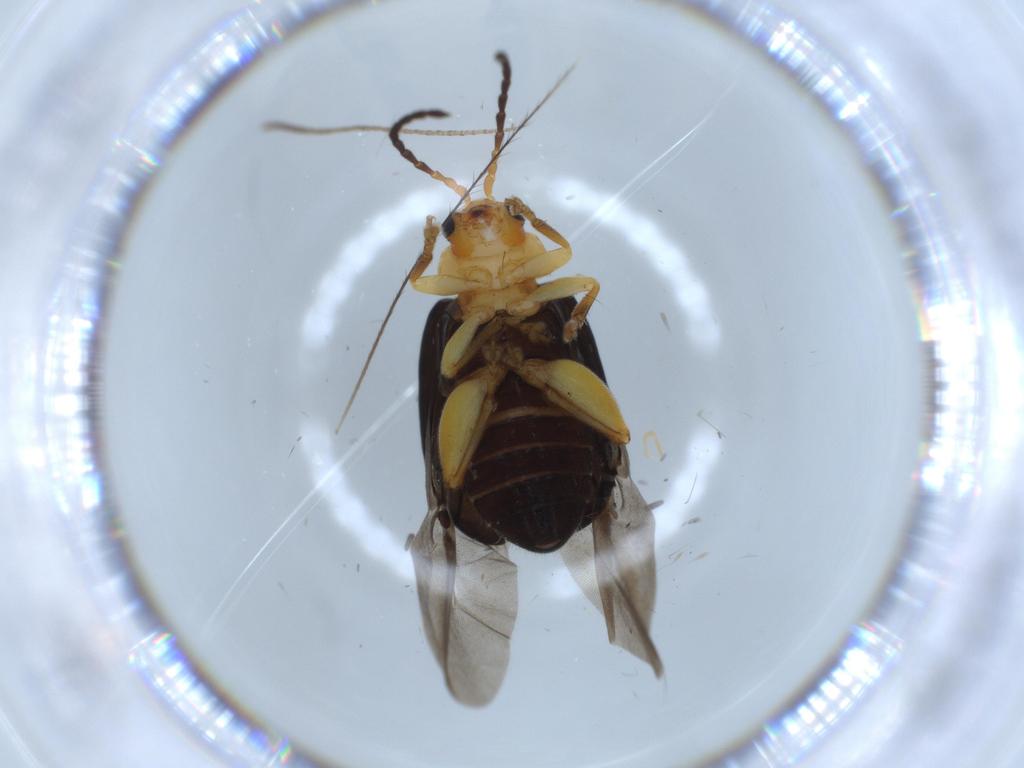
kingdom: Animalia
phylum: Arthropoda
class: Insecta
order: Coleoptera
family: Chrysomelidae
